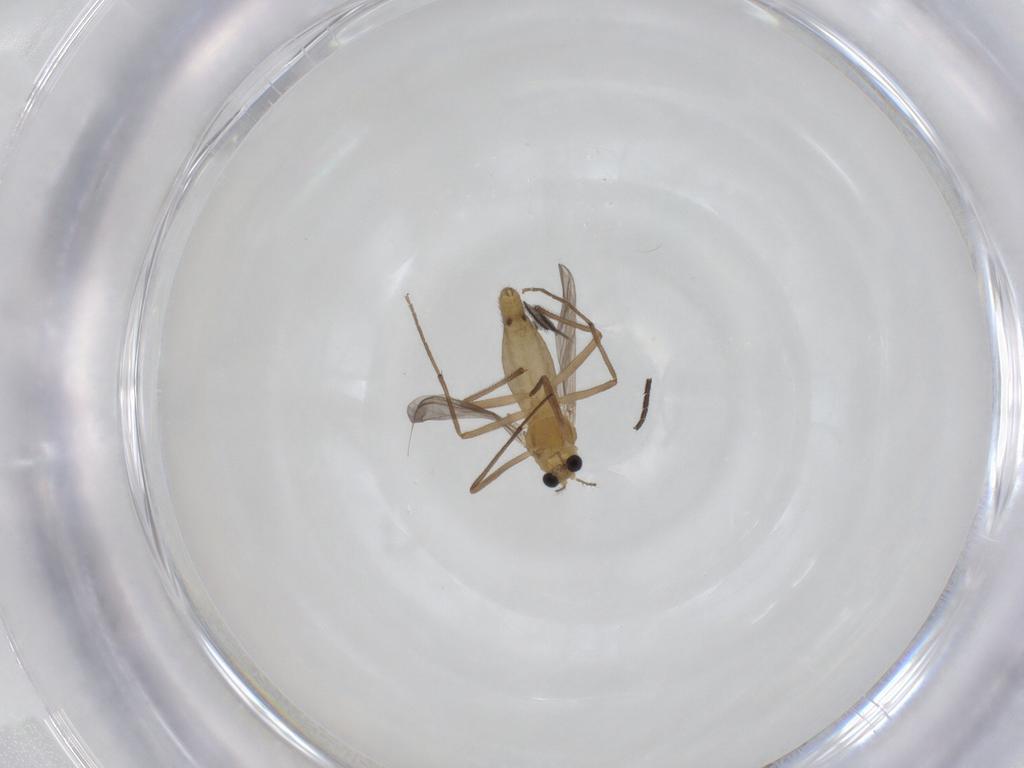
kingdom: Animalia
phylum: Arthropoda
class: Insecta
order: Diptera
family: Chironomidae
